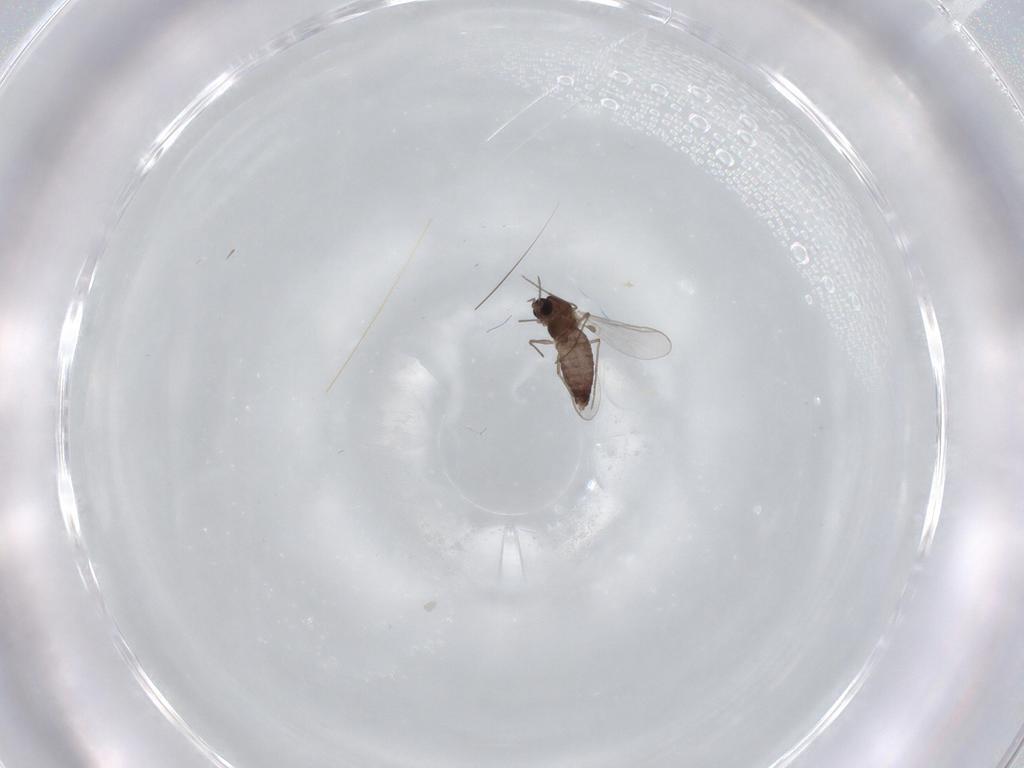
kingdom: Animalia
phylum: Arthropoda
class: Insecta
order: Diptera
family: Chironomidae
